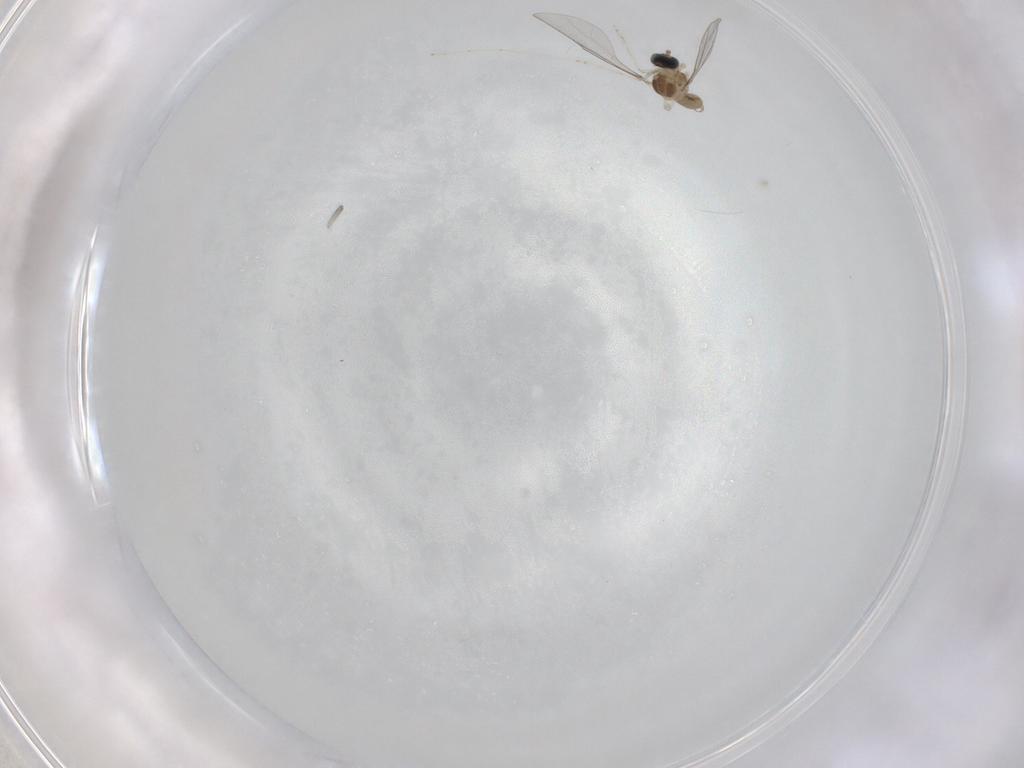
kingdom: Animalia
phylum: Arthropoda
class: Insecta
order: Diptera
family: Cecidomyiidae
